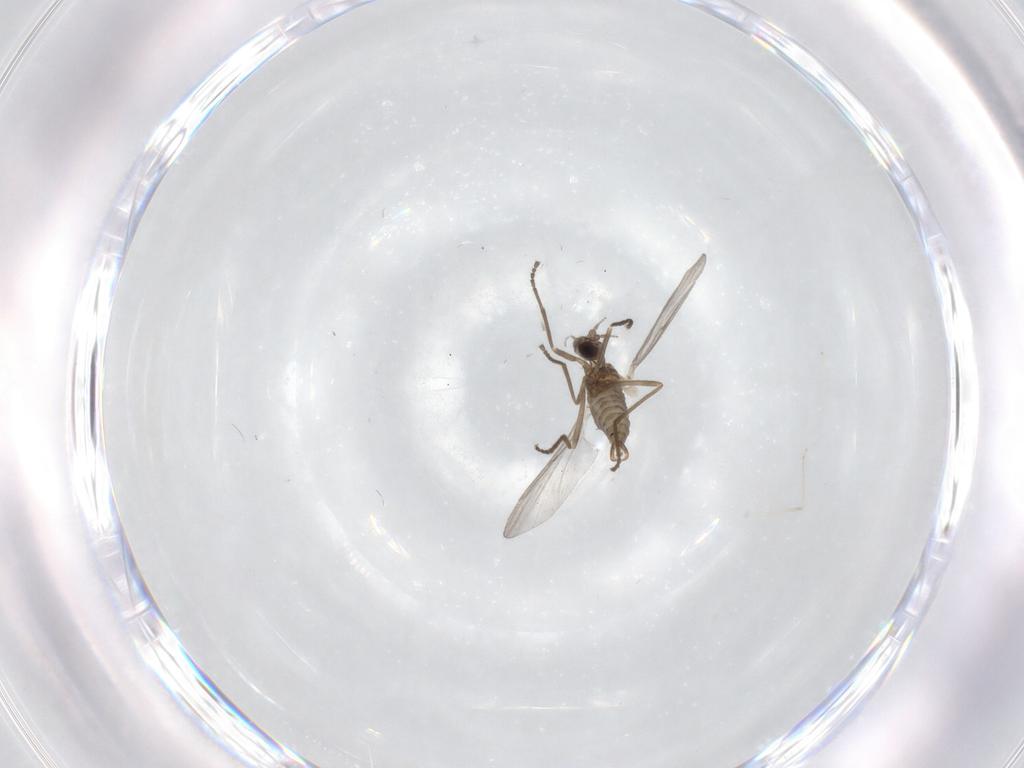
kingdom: Animalia
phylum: Arthropoda
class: Insecta
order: Diptera
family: Cecidomyiidae
